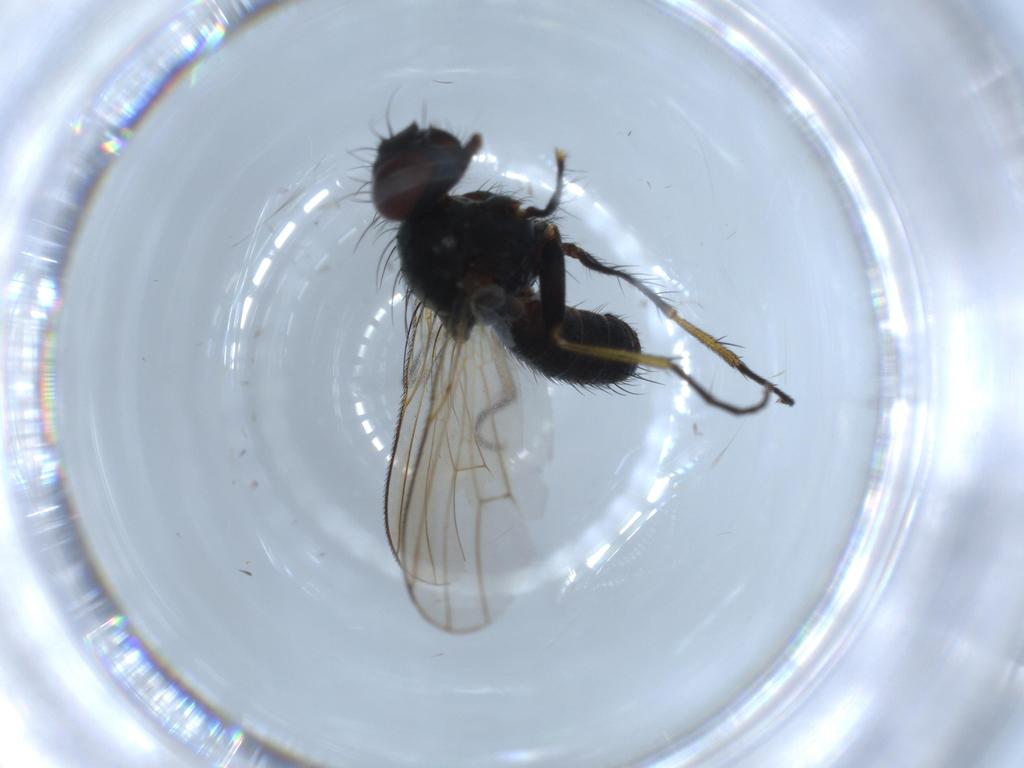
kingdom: Animalia
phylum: Arthropoda
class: Insecta
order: Diptera
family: Muscidae
